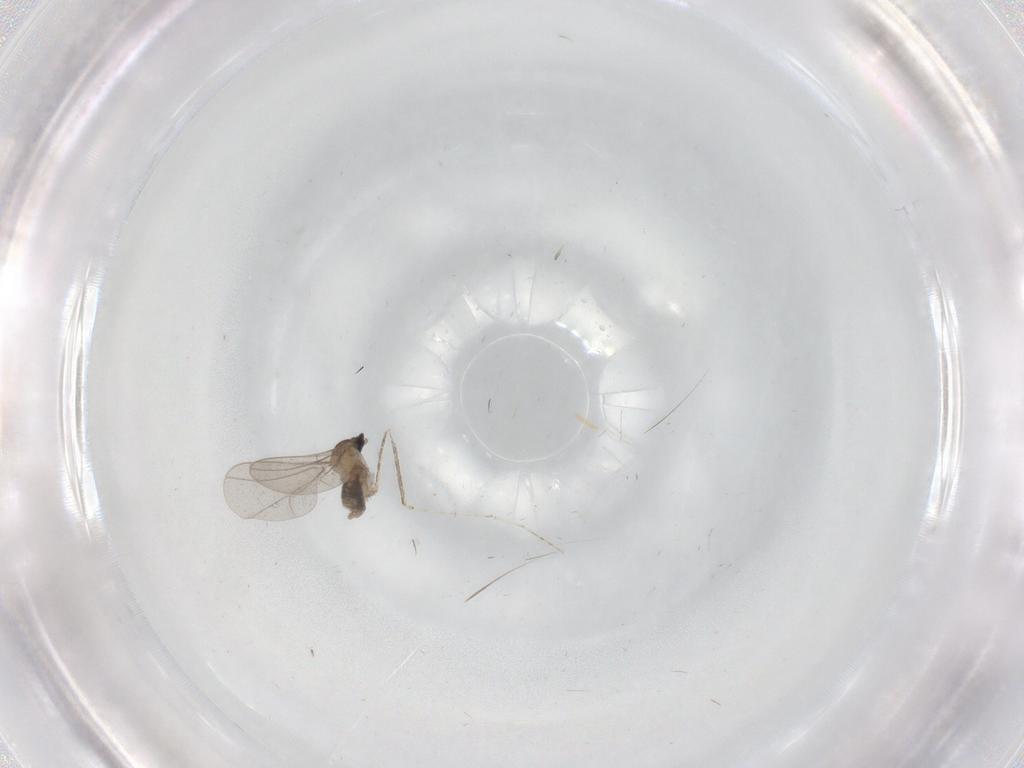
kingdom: Animalia
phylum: Arthropoda
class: Insecta
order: Diptera
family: Cecidomyiidae
